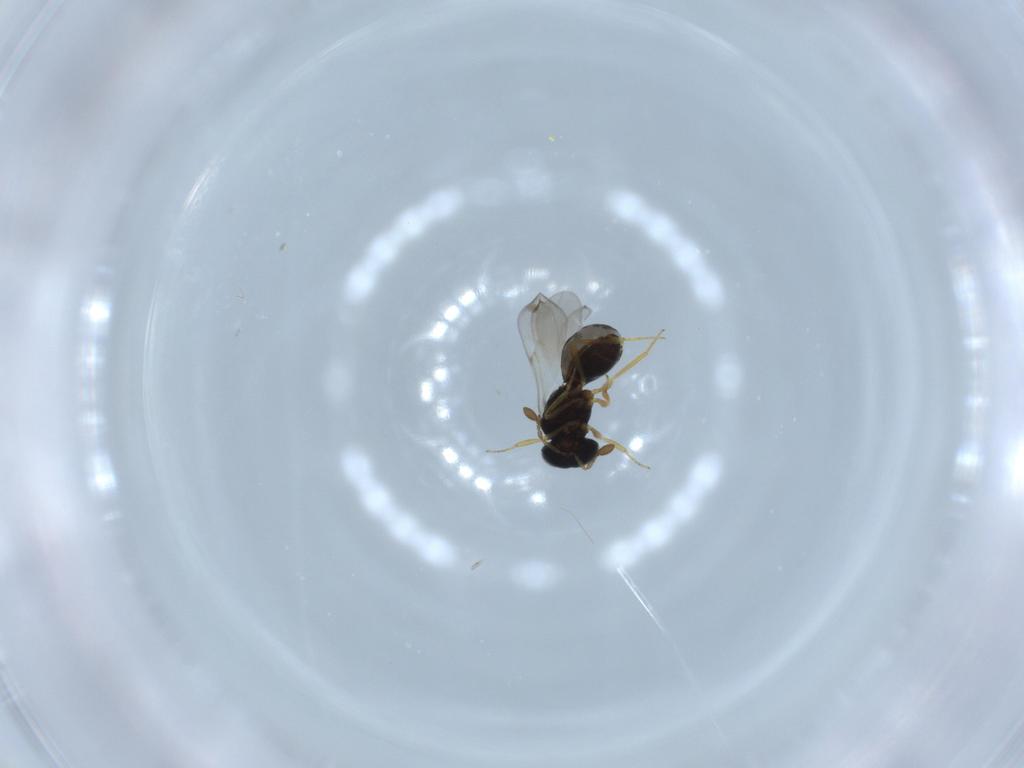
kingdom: Animalia
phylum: Arthropoda
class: Insecta
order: Hymenoptera
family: Scelionidae
